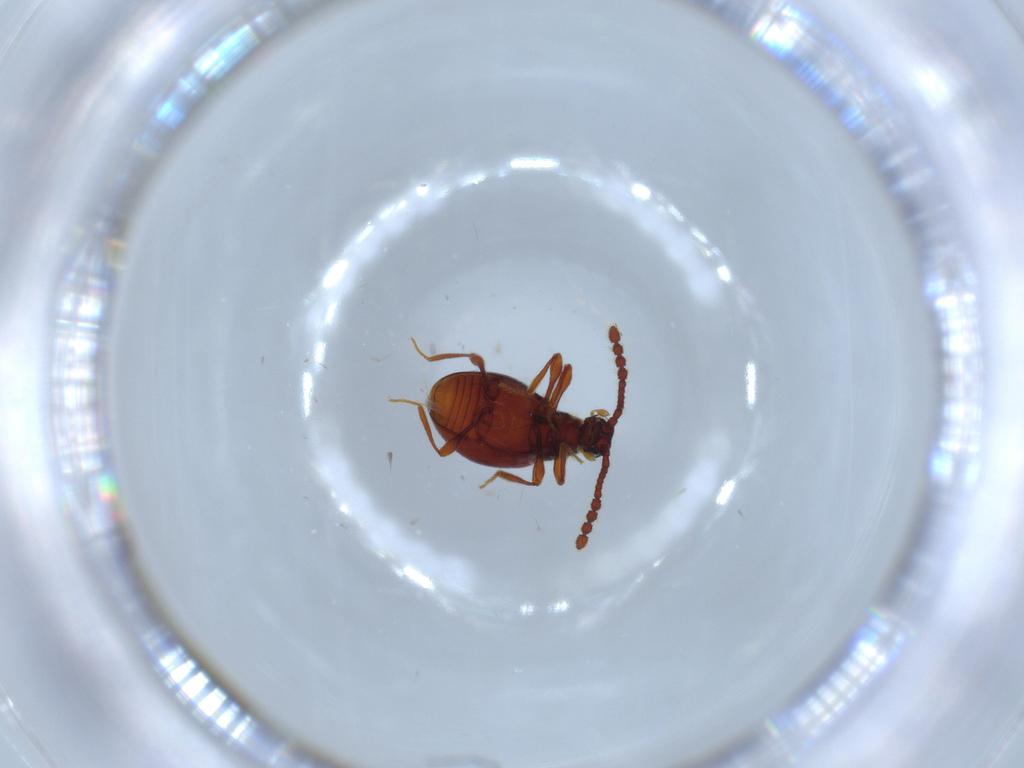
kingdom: Animalia
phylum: Arthropoda
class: Insecta
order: Coleoptera
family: Staphylinidae
